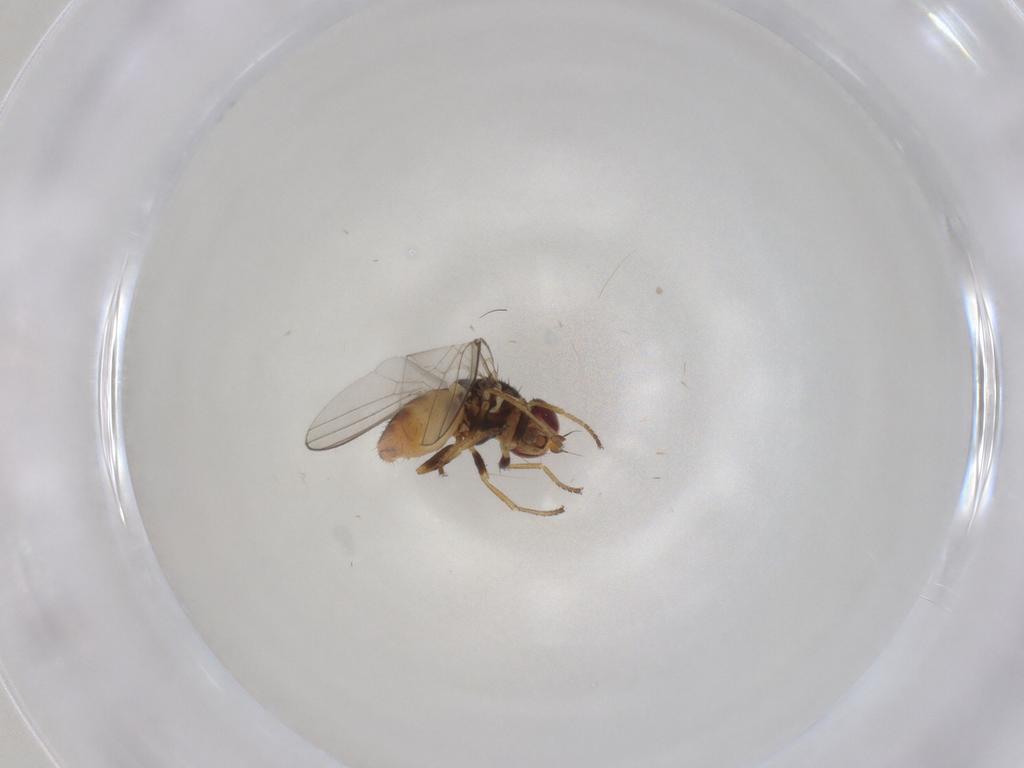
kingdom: Animalia
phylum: Arthropoda
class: Insecta
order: Diptera
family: Chloropidae
